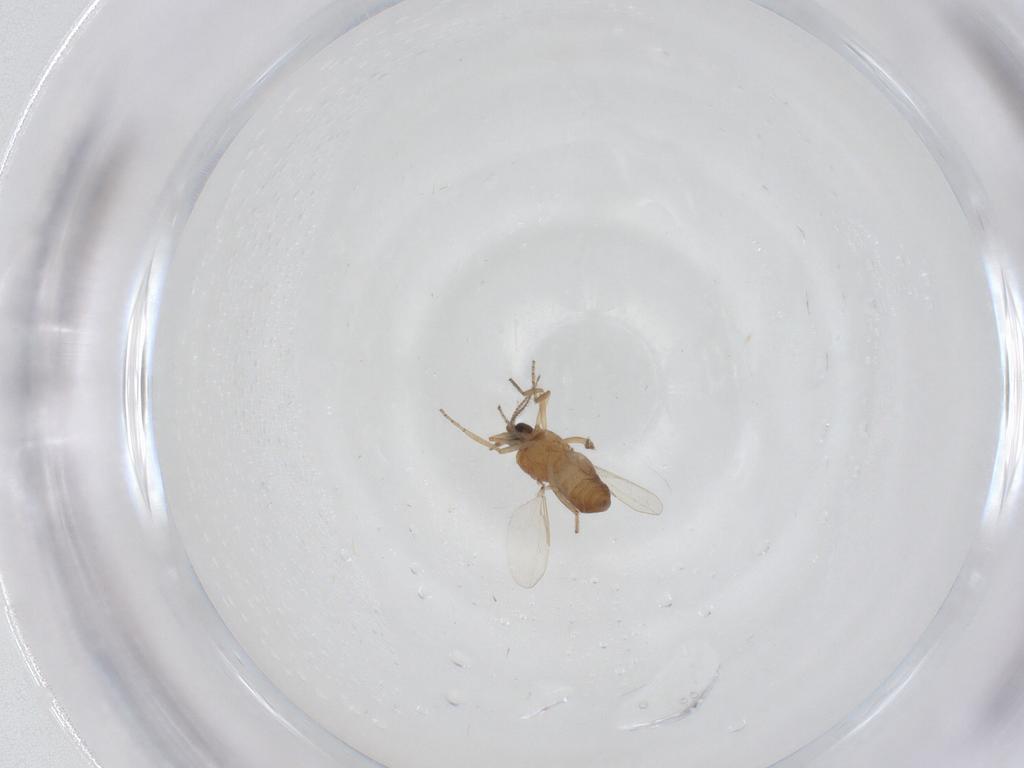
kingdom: Animalia
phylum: Arthropoda
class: Insecta
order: Diptera
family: Ceratopogonidae
